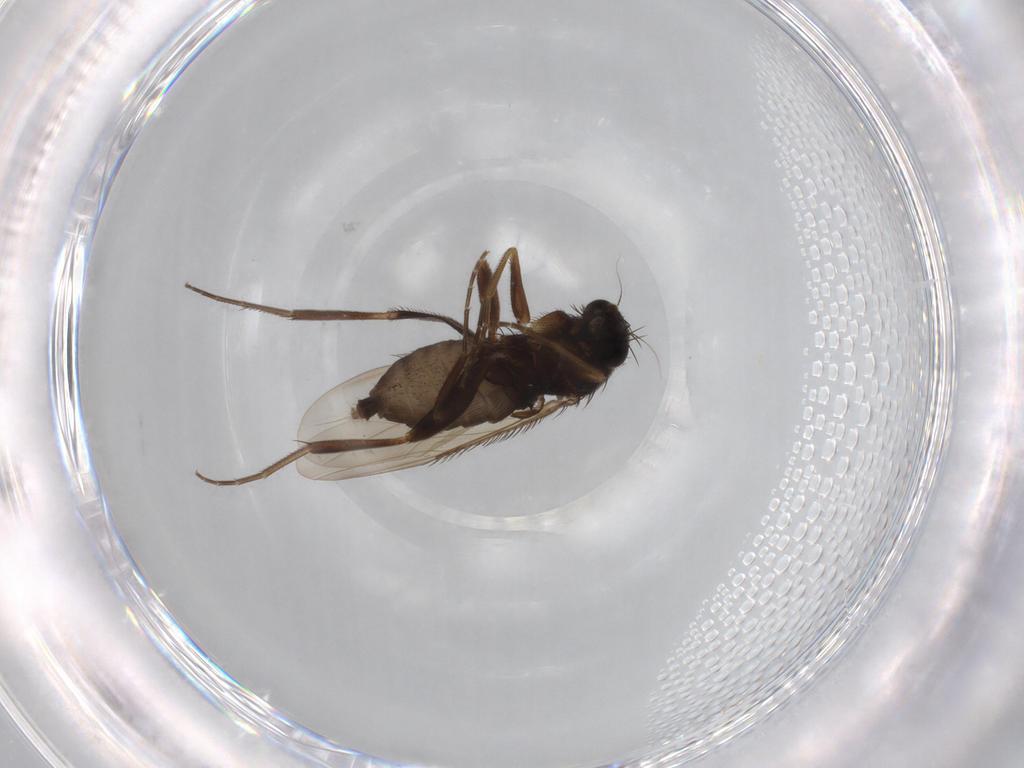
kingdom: Animalia
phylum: Arthropoda
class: Insecta
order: Diptera
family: Phoridae
